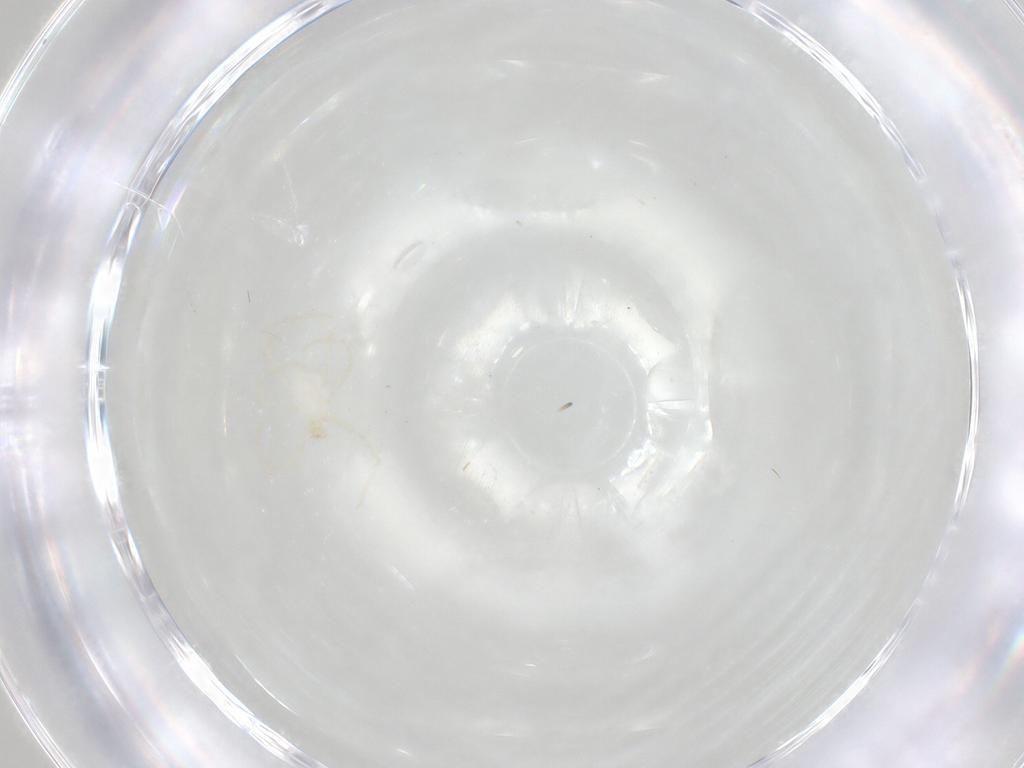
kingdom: Animalia
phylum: Arthropoda
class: Arachnida
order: Trombidiformes
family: Erythraeidae
